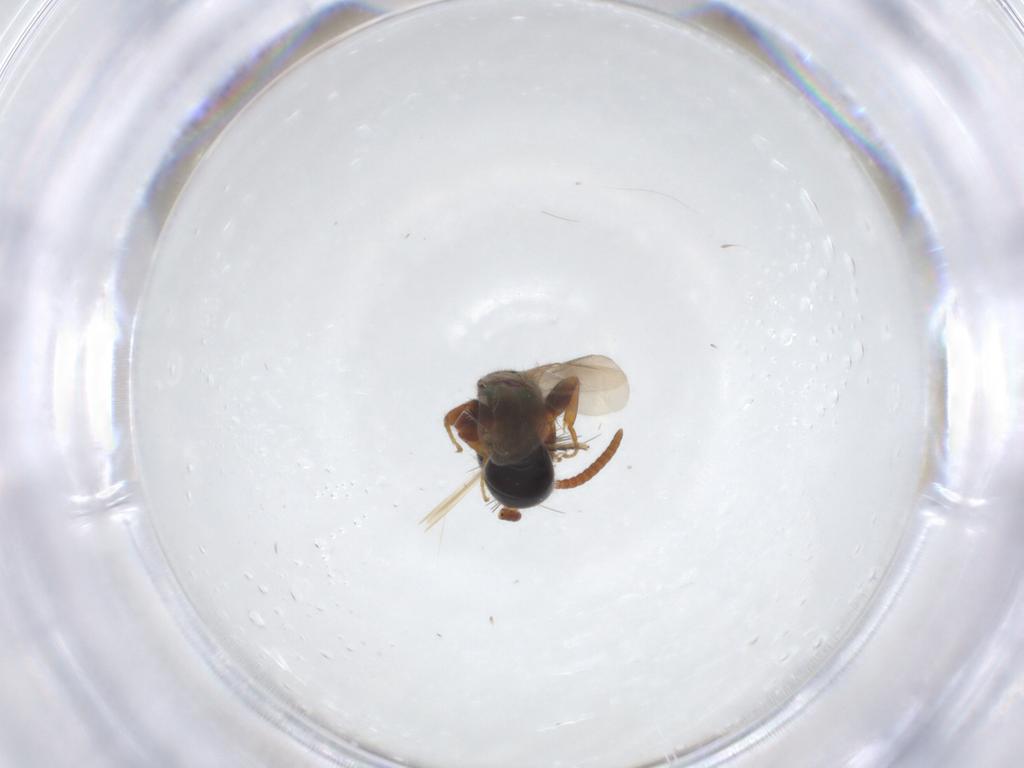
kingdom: Animalia
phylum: Arthropoda
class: Insecta
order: Hymenoptera
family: Bethylidae
